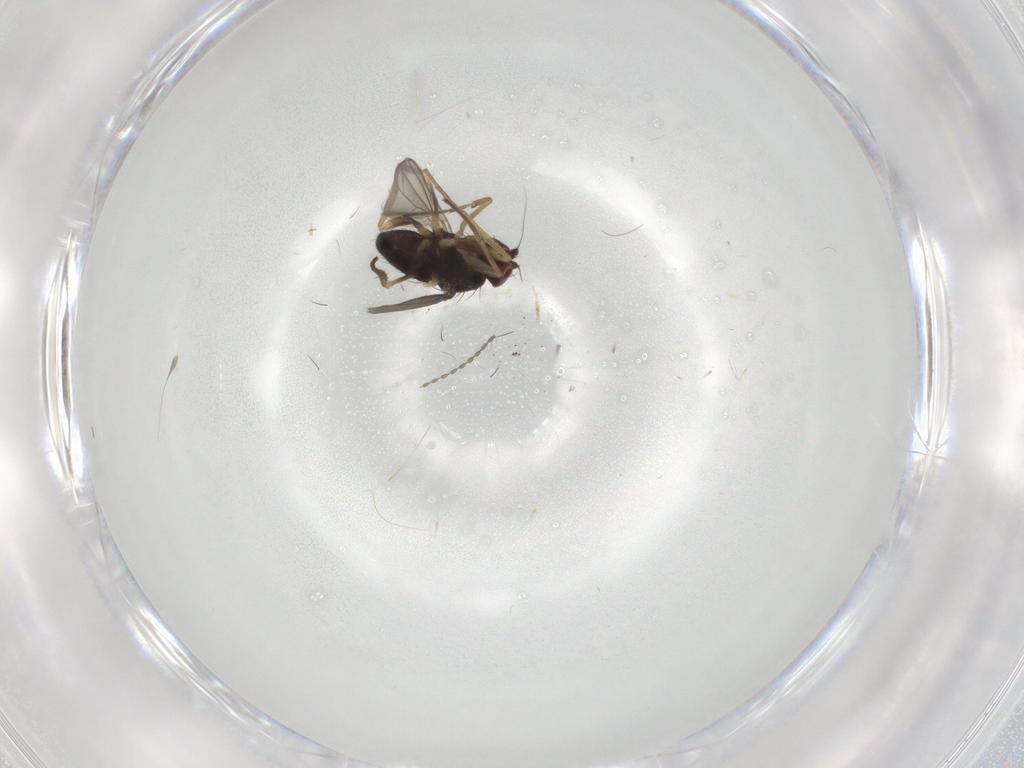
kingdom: Animalia
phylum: Arthropoda
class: Insecta
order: Diptera
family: Dolichopodidae
